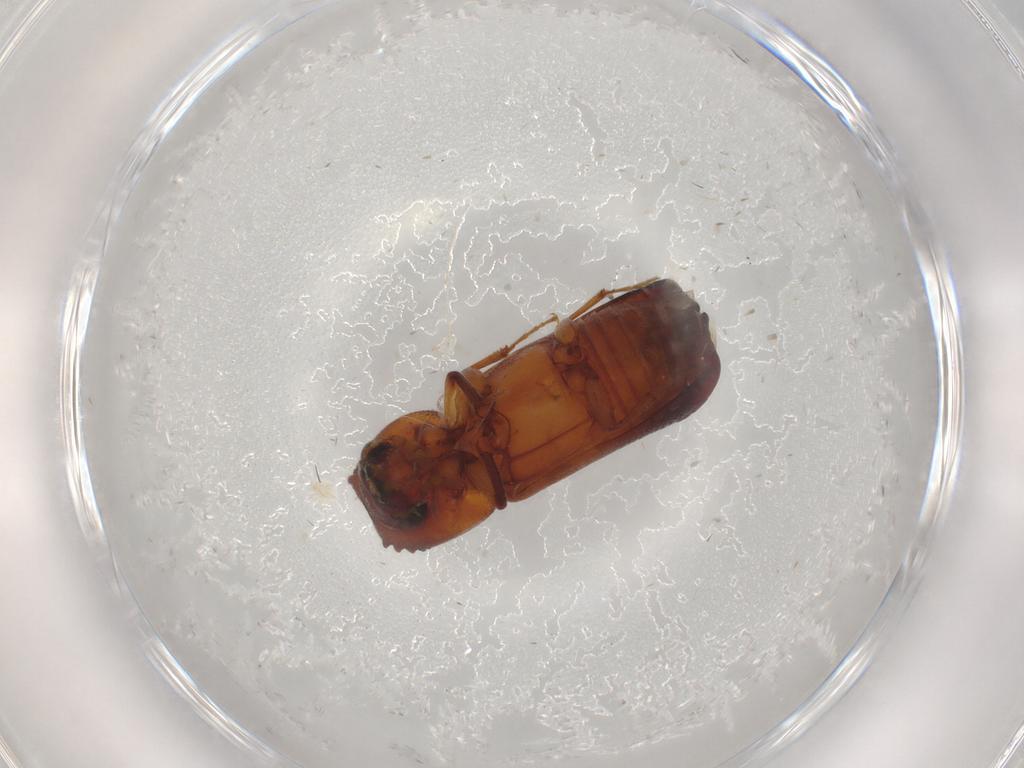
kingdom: Animalia
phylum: Arthropoda
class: Insecta
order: Coleoptera
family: Bostrichidae
